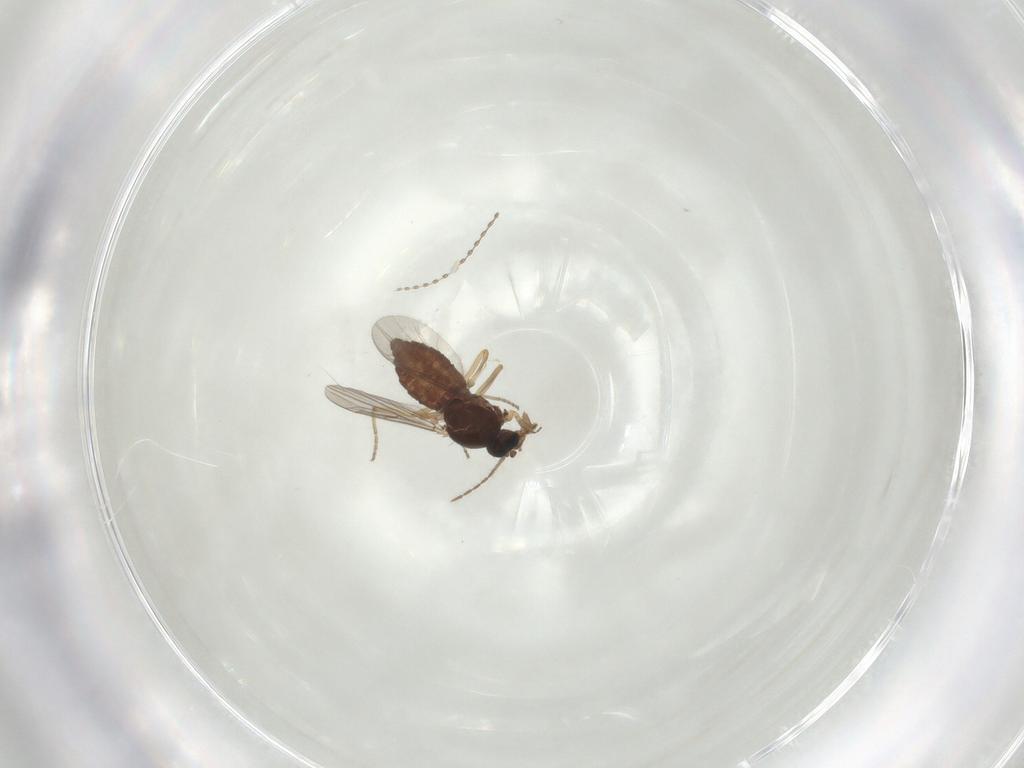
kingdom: Animalia
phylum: Arthropoda
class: Insecta
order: Diptera
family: Ceratopogonidae
